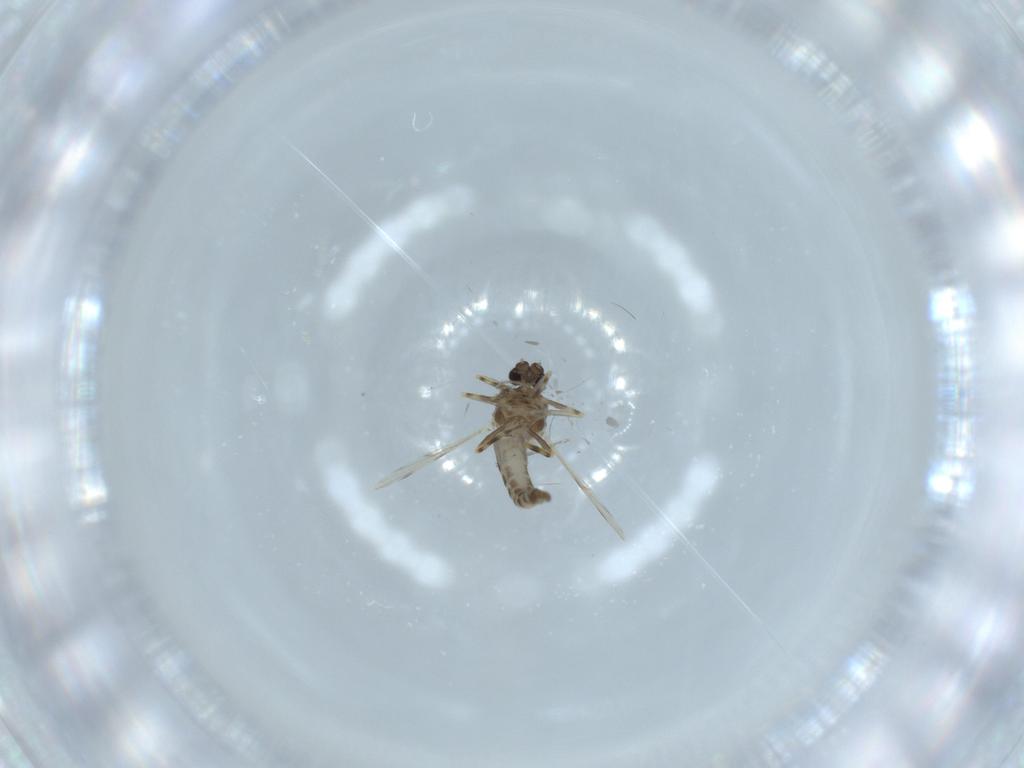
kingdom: Animalia
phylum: Arthropoda
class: Insecta
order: Diptera
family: Ceratopogonidae
